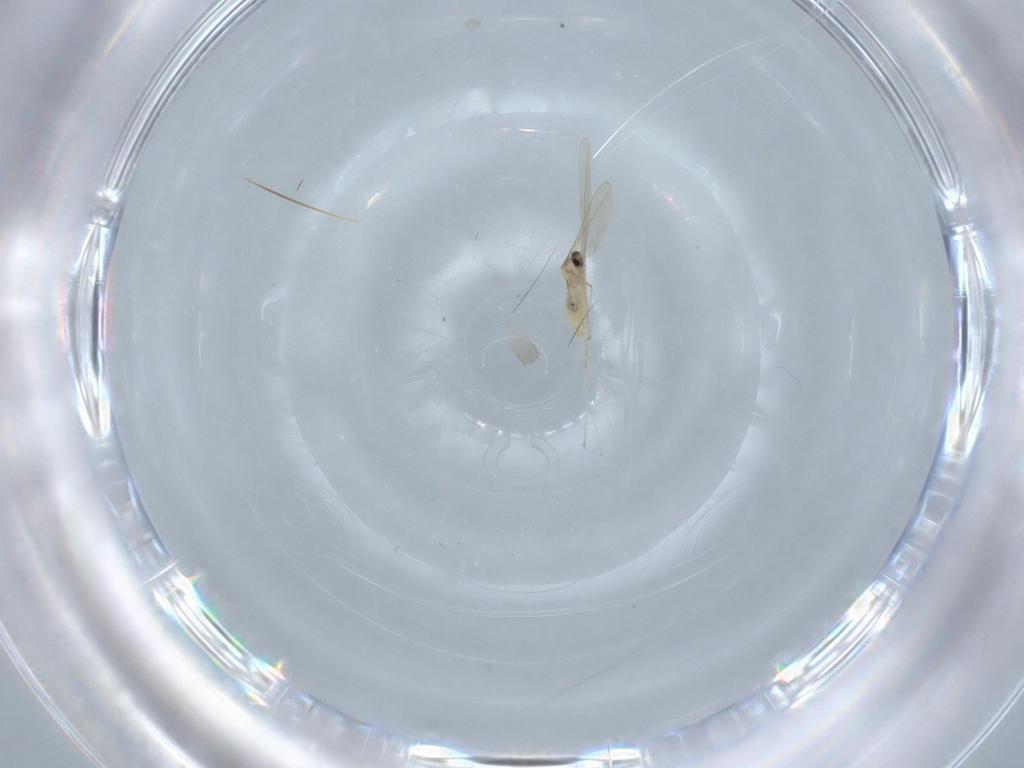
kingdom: Animalia
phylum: Arthropoda
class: Insecta
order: Diptera
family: Cecidomyiidae
